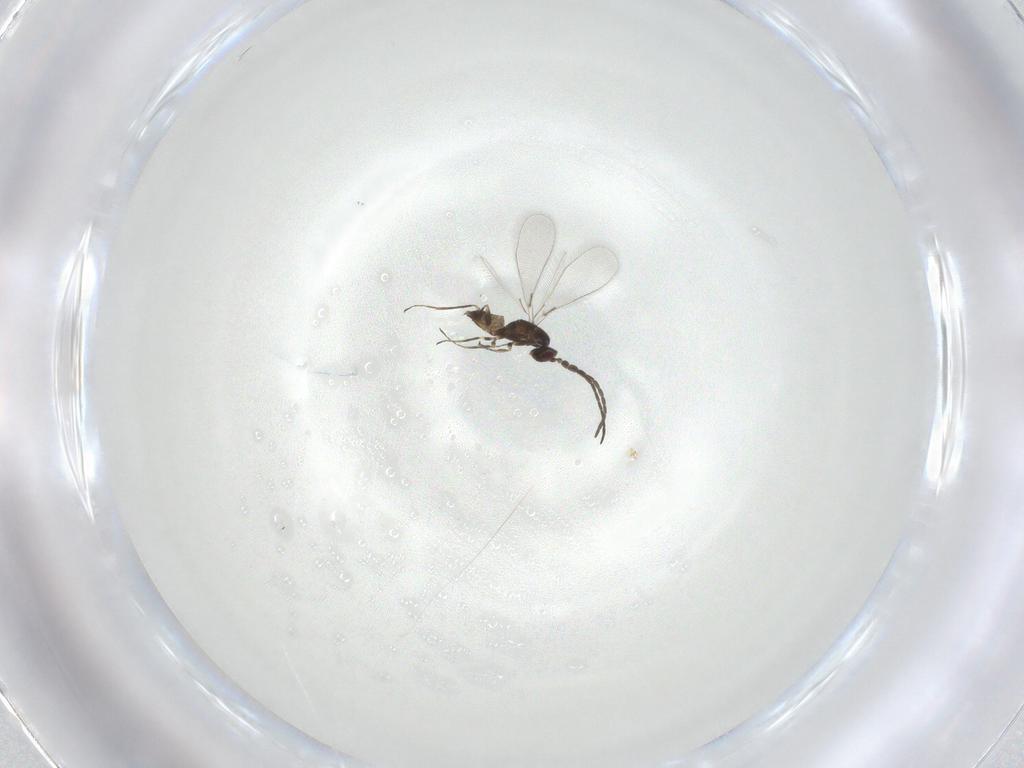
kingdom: Animalia
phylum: Arthropoda
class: Insecta
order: Hymenoptera
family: Mymaridae
